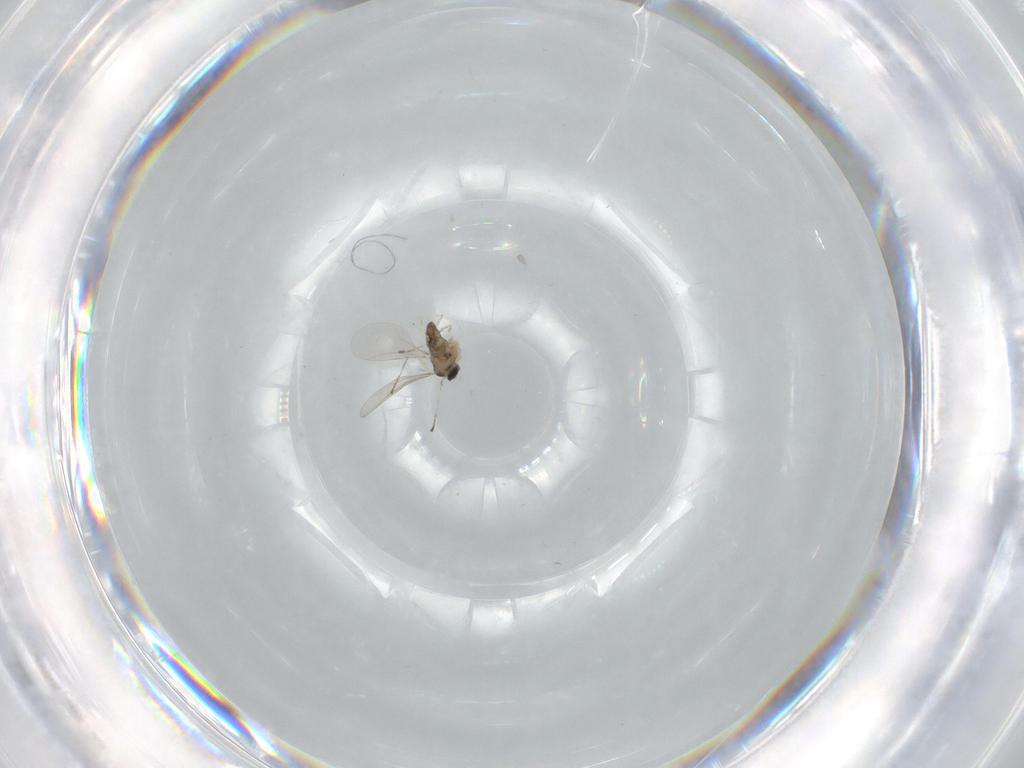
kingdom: Animalia
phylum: Arthropoda
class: Insecta
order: Diptera
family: Cecidomyiidae
